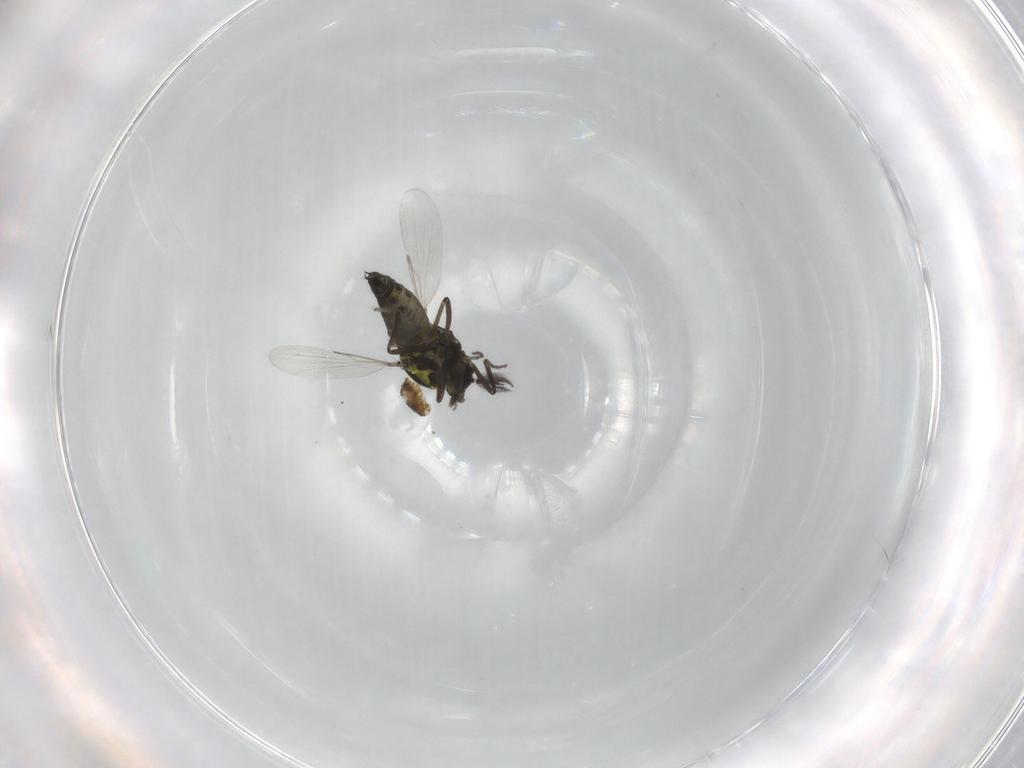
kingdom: Animalia
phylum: Arthropoda
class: Insecta
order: Diptera
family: Ceratopogonidae
